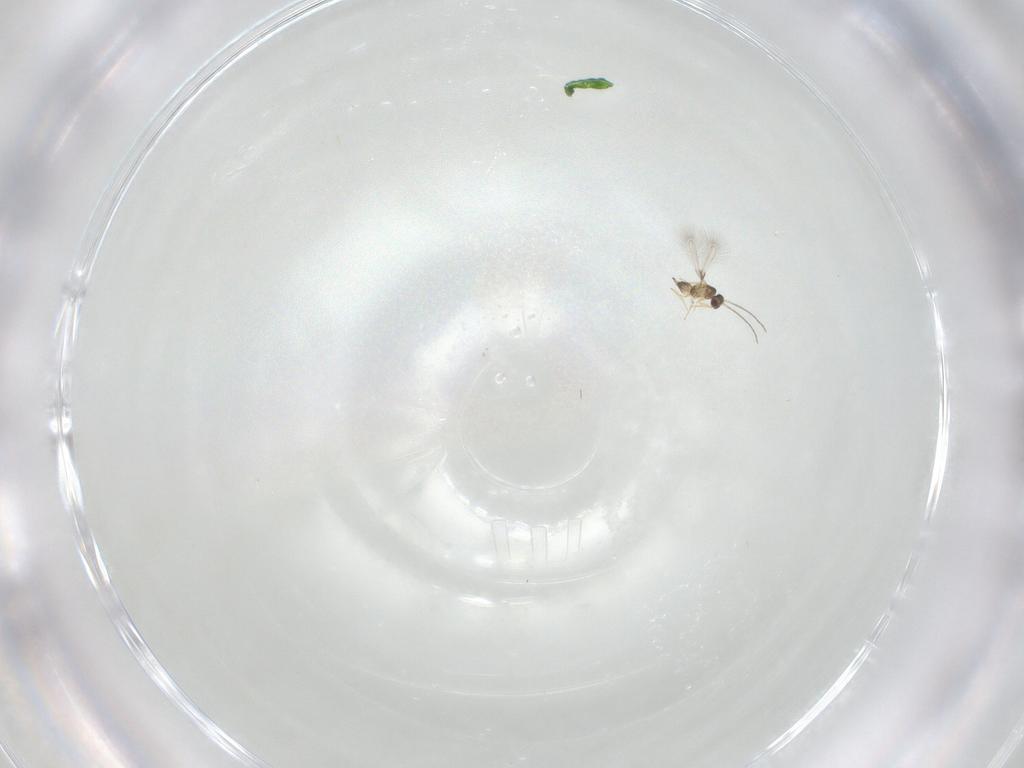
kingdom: Animalia
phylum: Arthropoda
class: Insecta
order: Hymenoptera
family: Mymaridae
